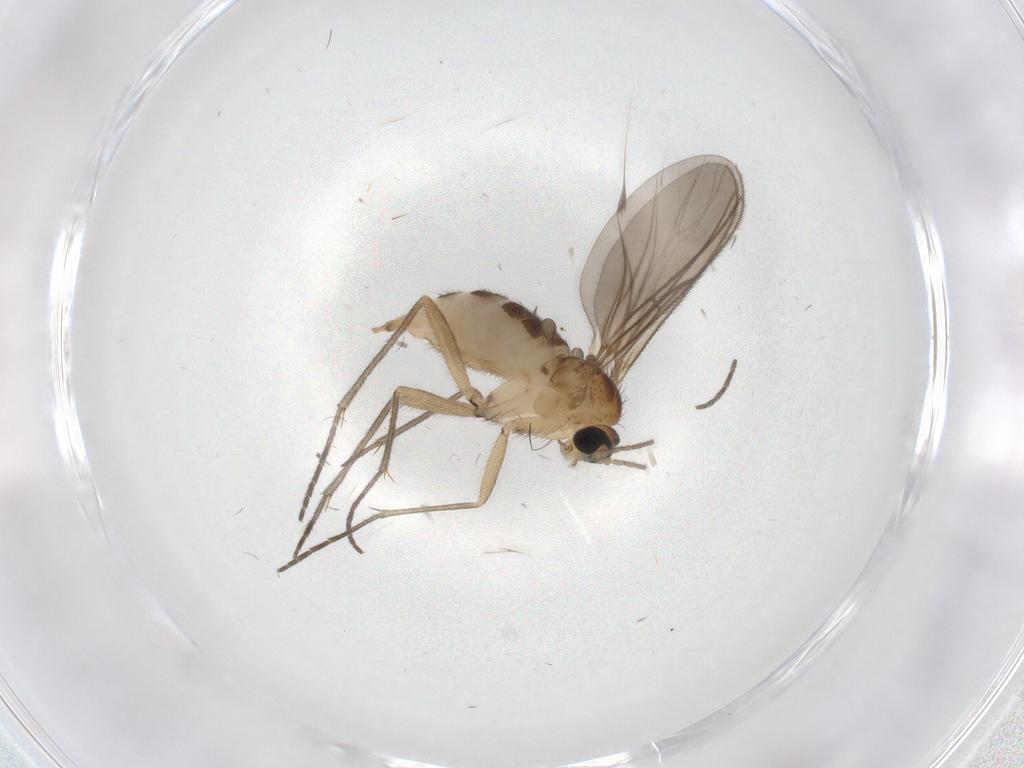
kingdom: Animalia
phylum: Arthropoda
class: Insecta
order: Diptera
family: Sciaridae
